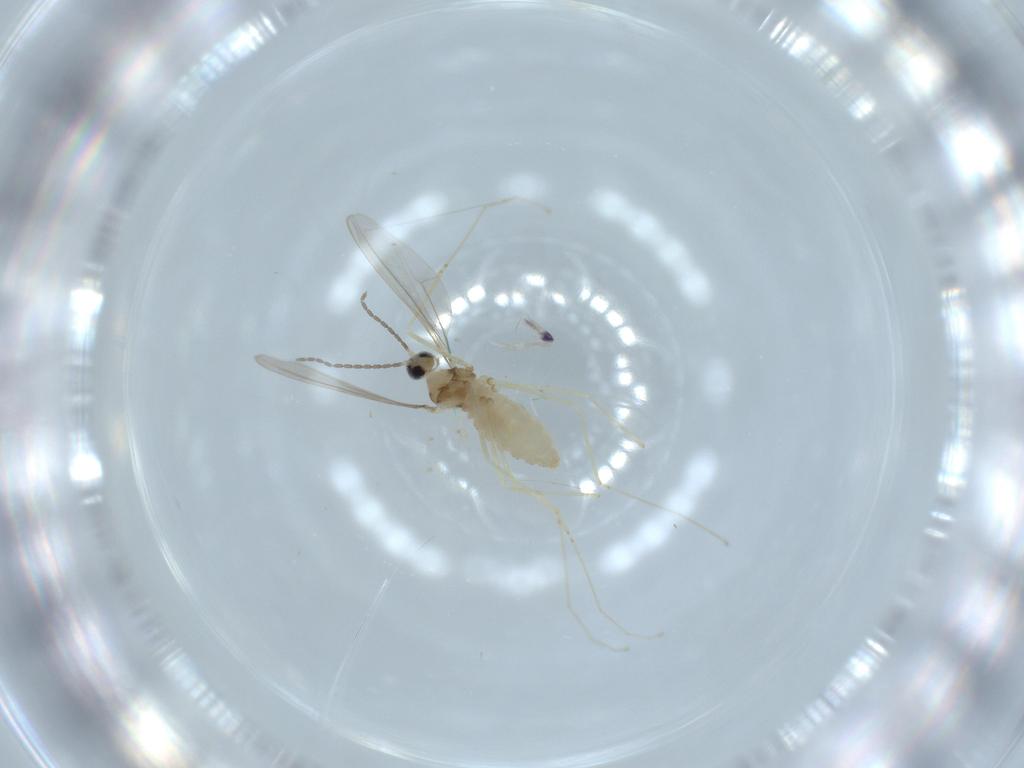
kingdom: Animalia
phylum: Arthropoda
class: Insecta
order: Diptera
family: Cecidomyiidae
